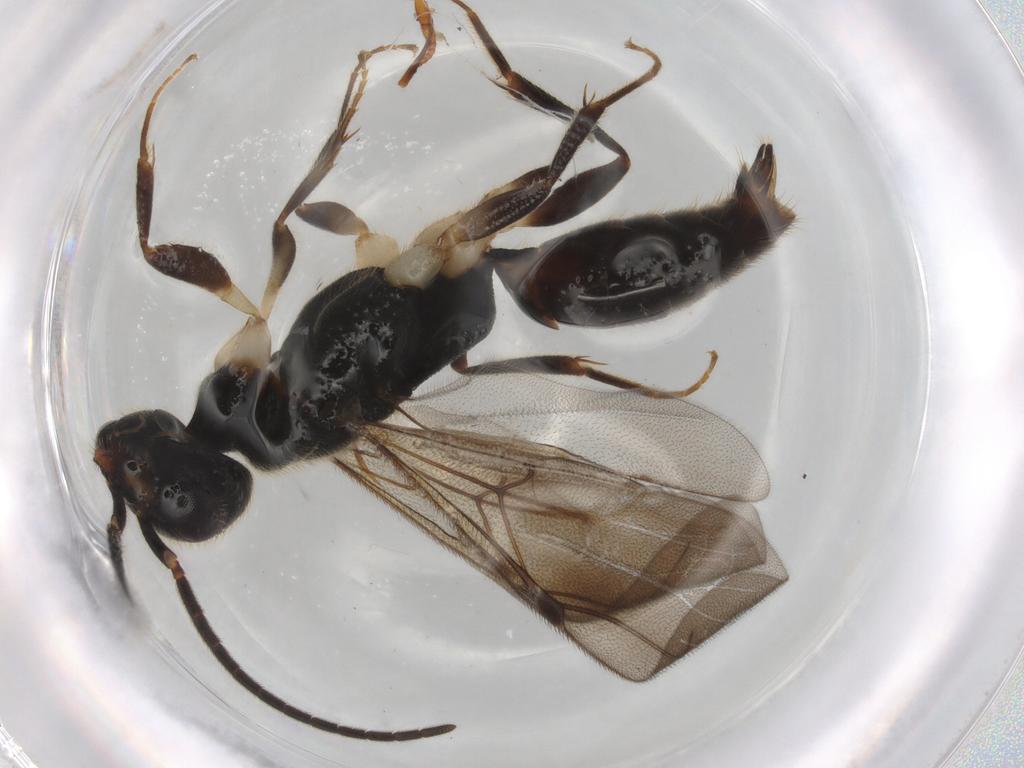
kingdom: Animalia
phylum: Arthropoda
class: Insecta
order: Hymenoptera
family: Bethylidae
